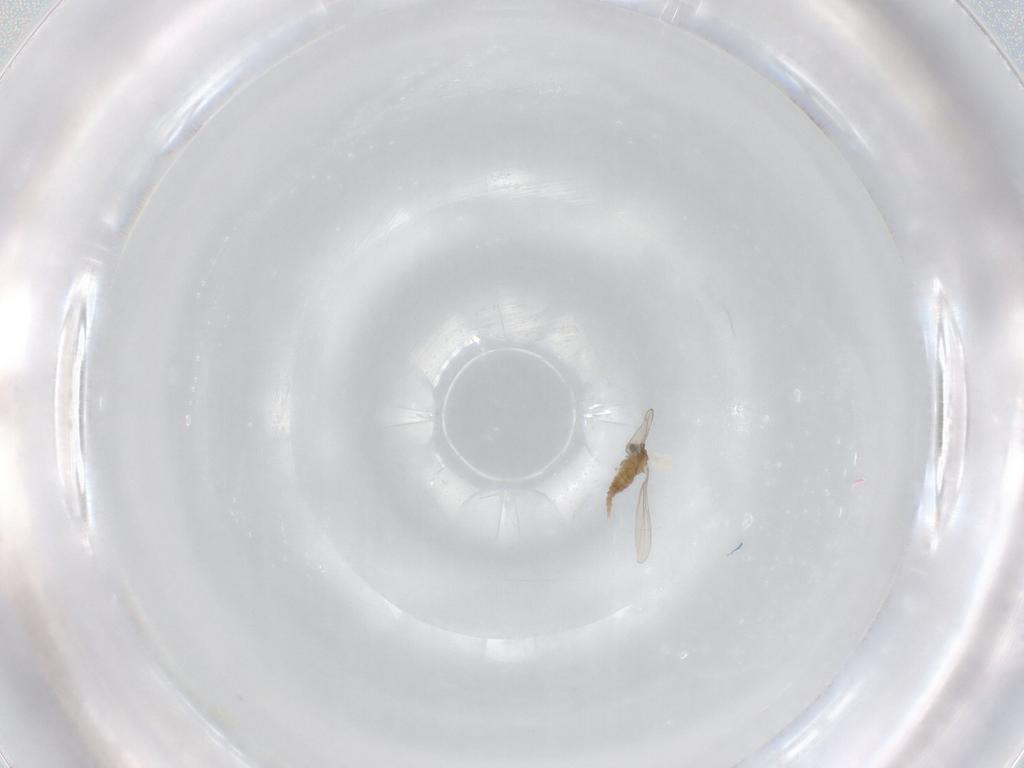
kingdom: Animalia
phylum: Arthropoda
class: Insecta
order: Diptera
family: Cecidomyiidae
